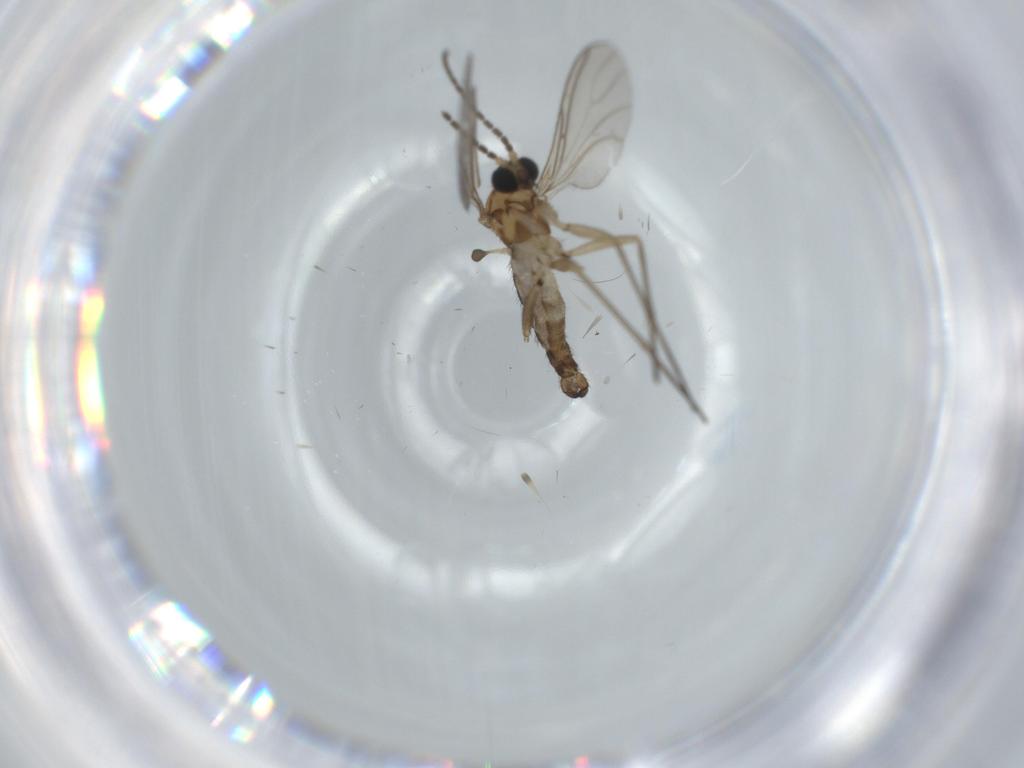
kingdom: Animalia
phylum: Arthropoda
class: Insecta
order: Diptera
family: Sciaridae
